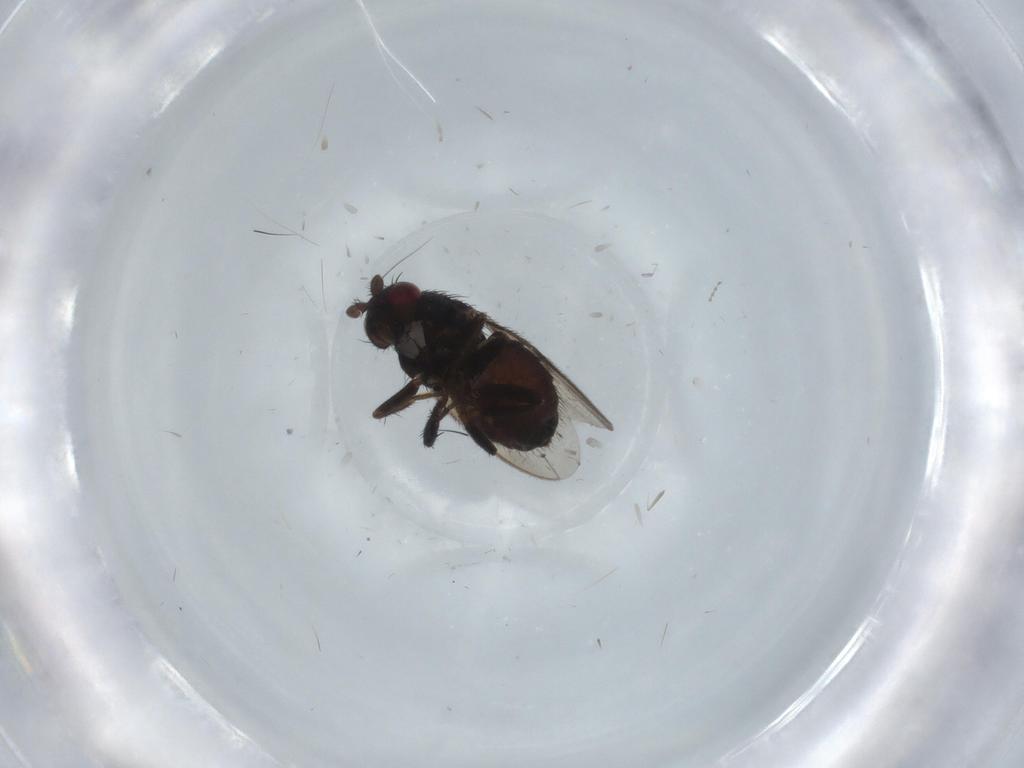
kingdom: Animalia
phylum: Arthropoda
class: Insecta
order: Diptera
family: Sphaeroceridae
